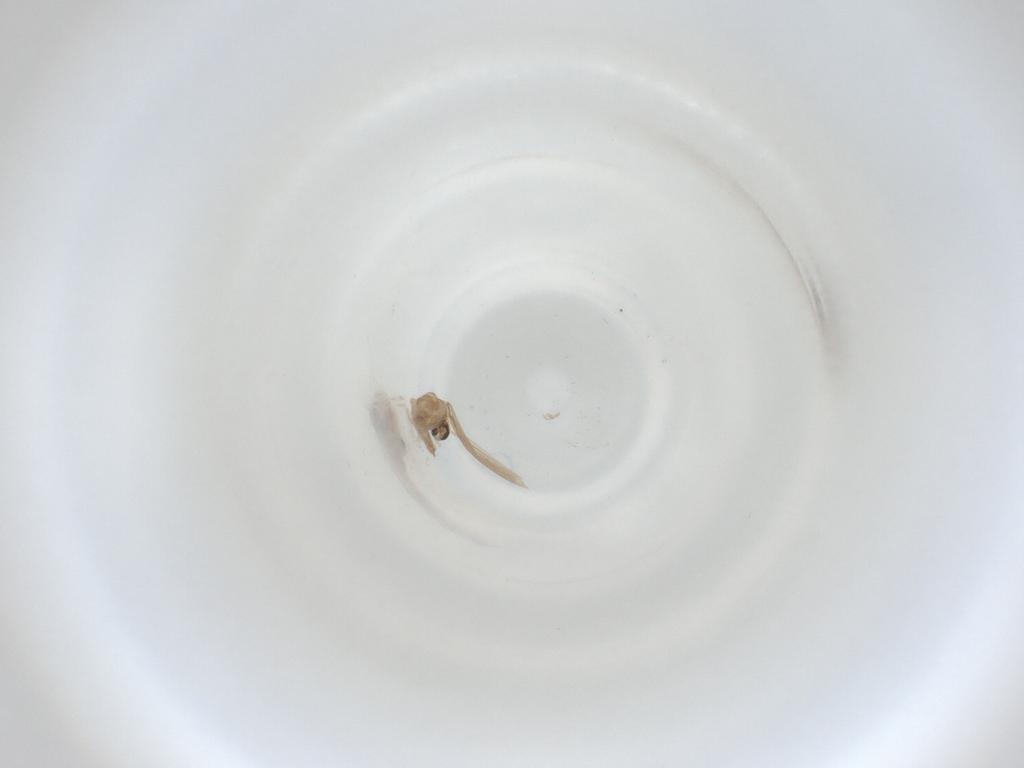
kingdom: Animalia
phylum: Arthropoda
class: Insecta
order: Diptera
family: Cecidomyiidae
